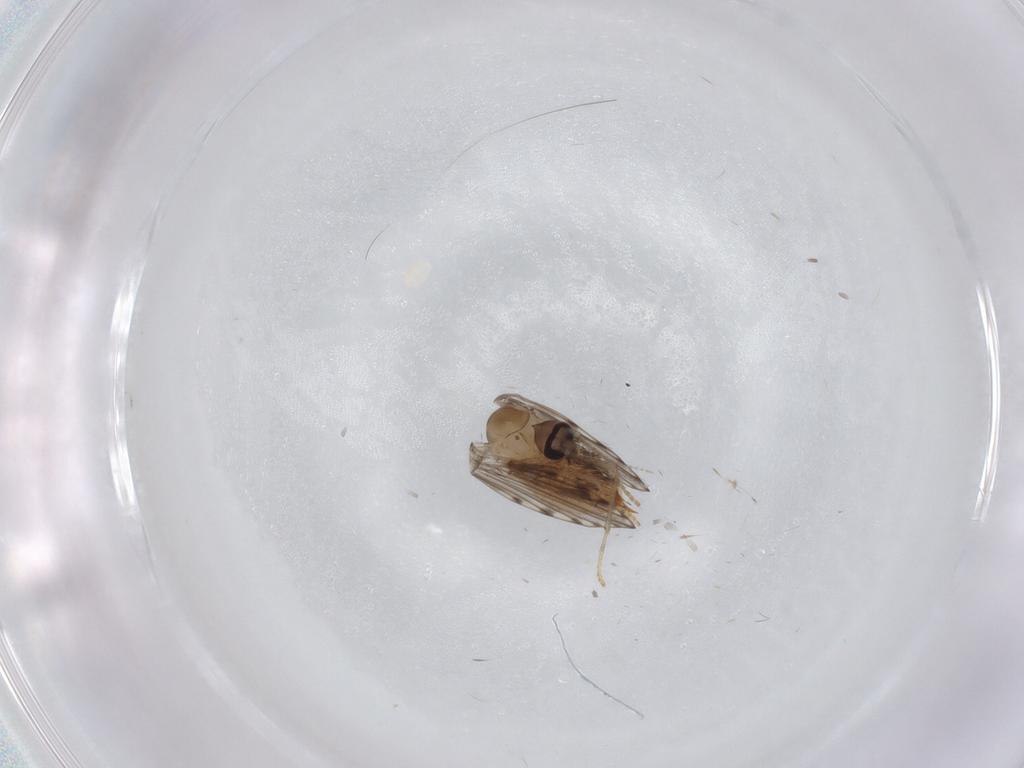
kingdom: Animalia
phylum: Arthropoda
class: Insecta
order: Diptera
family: Psychodidae
